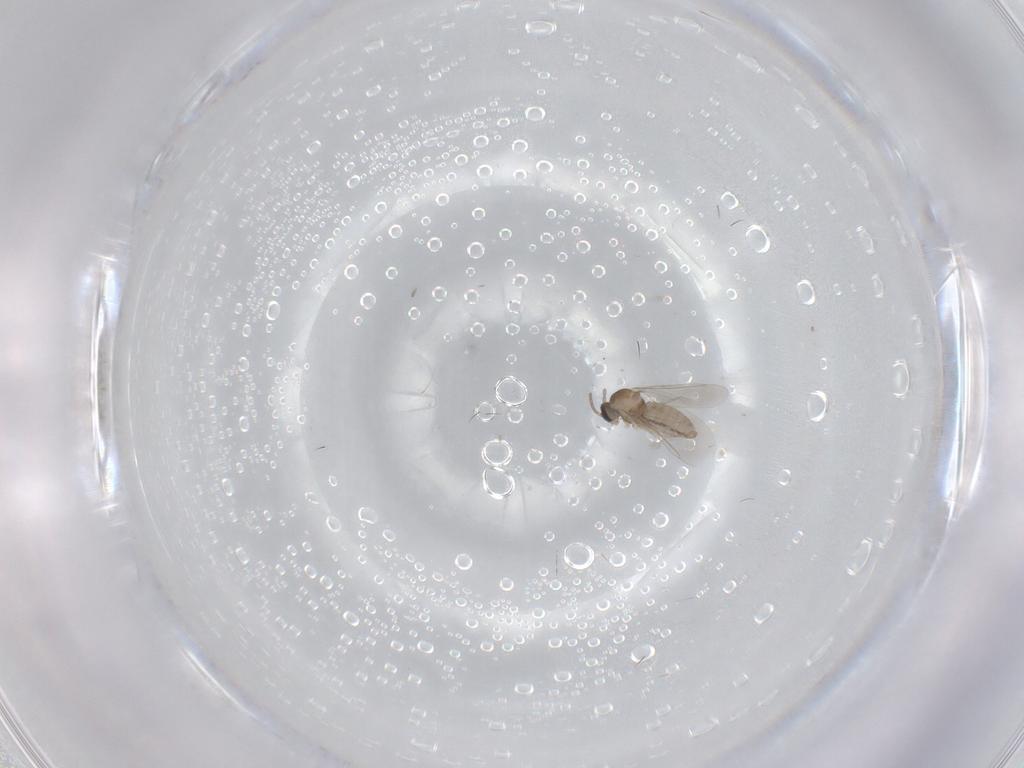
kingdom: Animalia
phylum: Arthropoda
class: Insecta
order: Diptera
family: Cecidomyiidae
